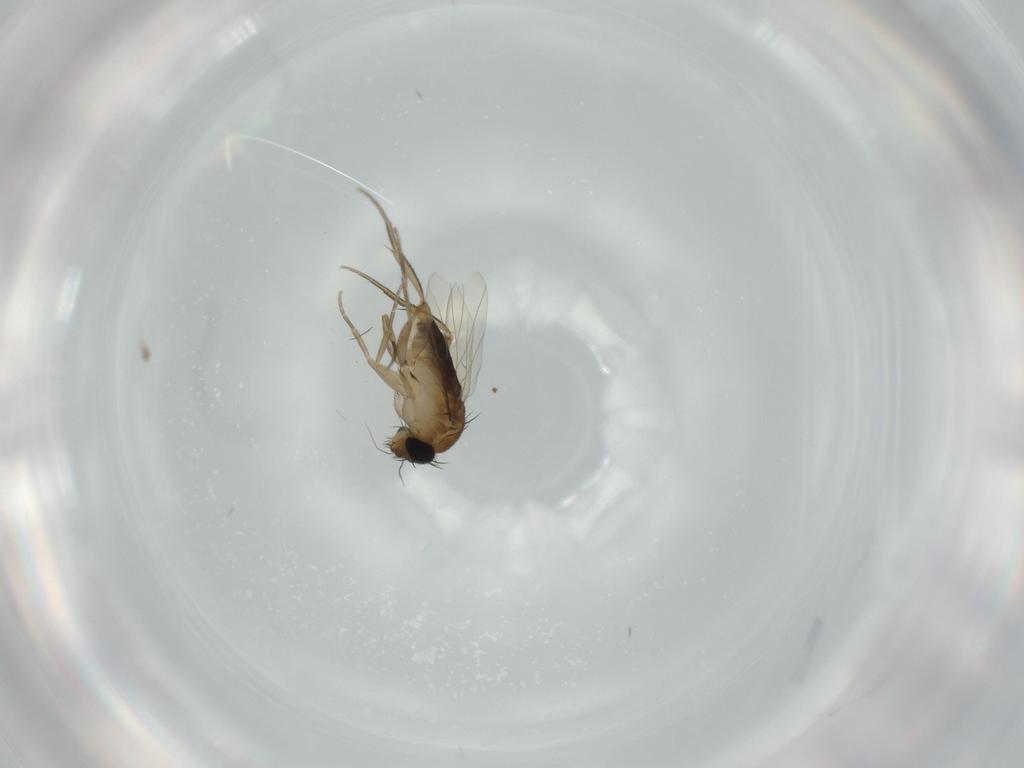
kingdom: Animalia
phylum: Arthropoda
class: Insecta
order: Diptera
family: Phoridae
